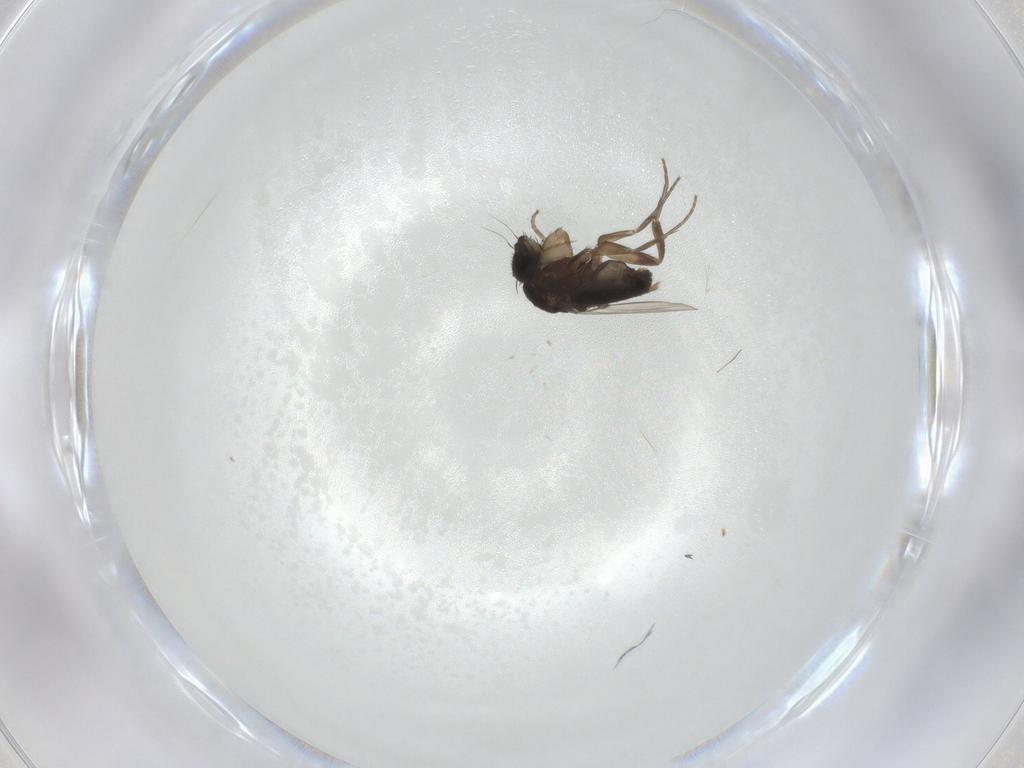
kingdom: Animalia
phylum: Arthropoda
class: Insecta
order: Diptera
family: Phoridae
